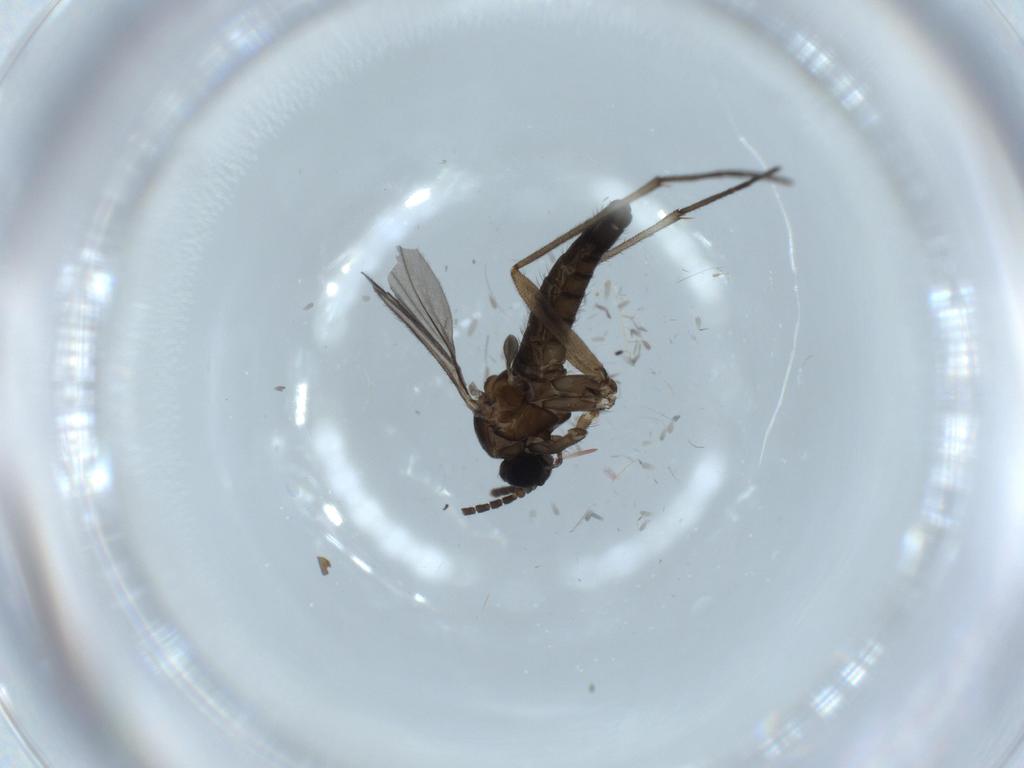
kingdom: Animalia
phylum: Arthropoda
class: Insecta
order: Diptera
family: Sciaridae
